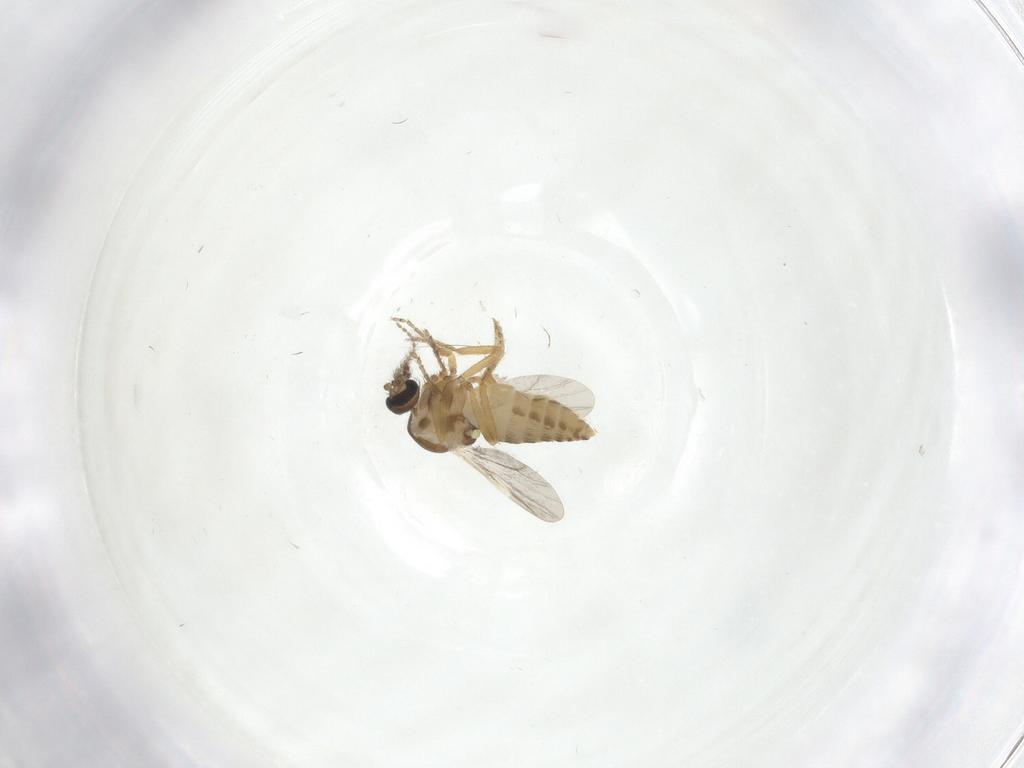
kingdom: Animalia
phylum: Arthropoda
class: Insecta
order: Diptera
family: Ceratopogonidae
